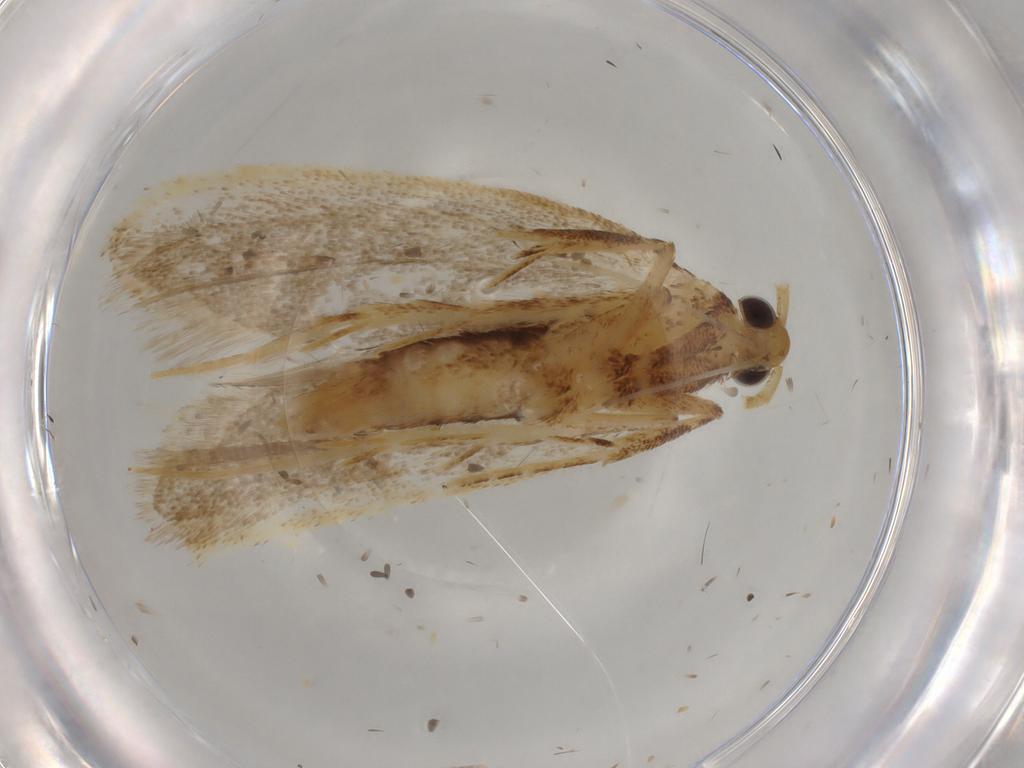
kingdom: Animalia
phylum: Arthropoda
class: Insecta
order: Lepidoptera
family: Lecithoceridae
